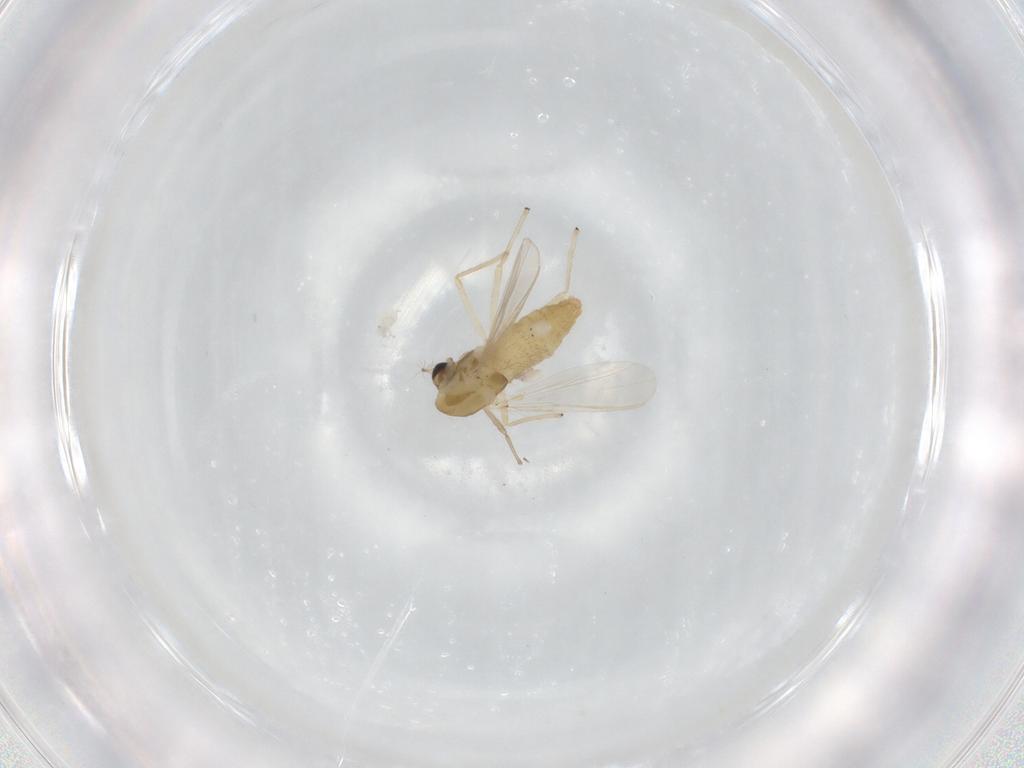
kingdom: Animalia
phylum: Arthropoda
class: Insecta
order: Diptera
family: Chironomidae
